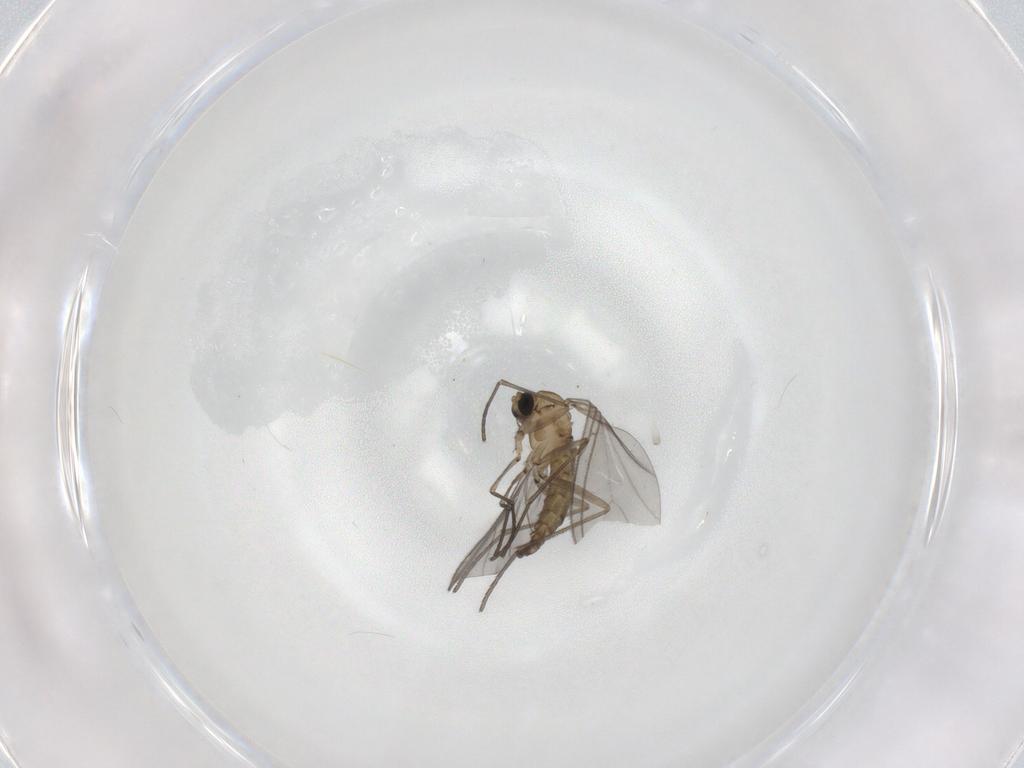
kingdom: Animalia
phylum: Arthropoda
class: Insecta
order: Diptera
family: Sciaridae
